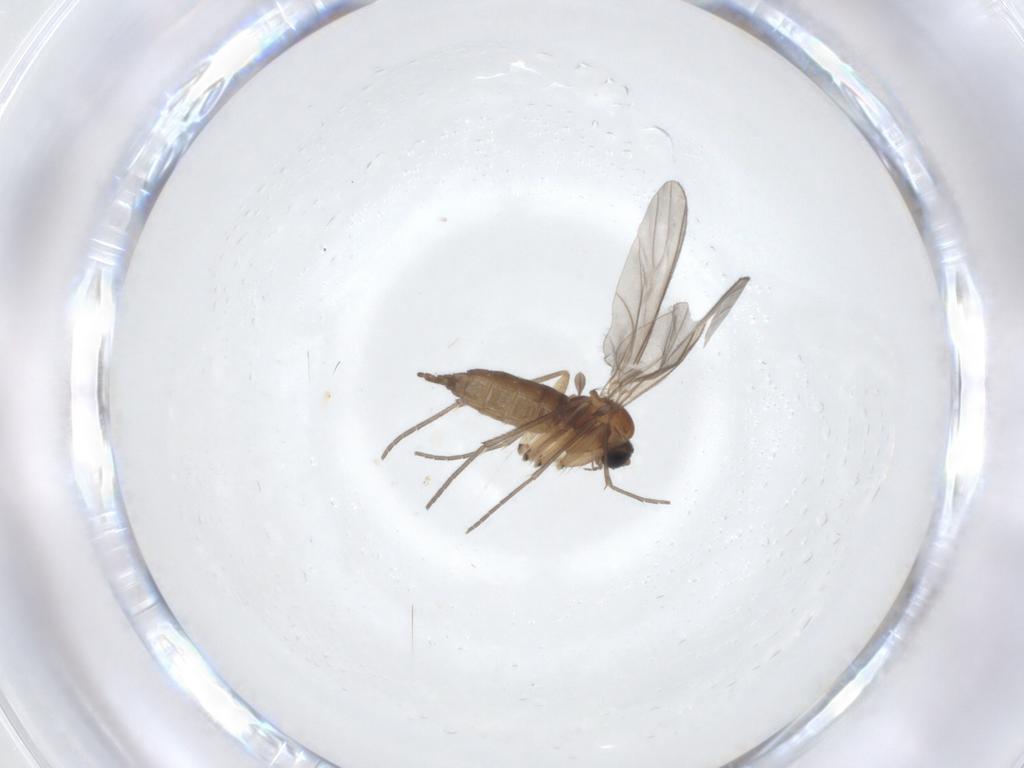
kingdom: Animalia
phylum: Arthropoda
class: Insecta
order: Diptera
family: Sciaridae
